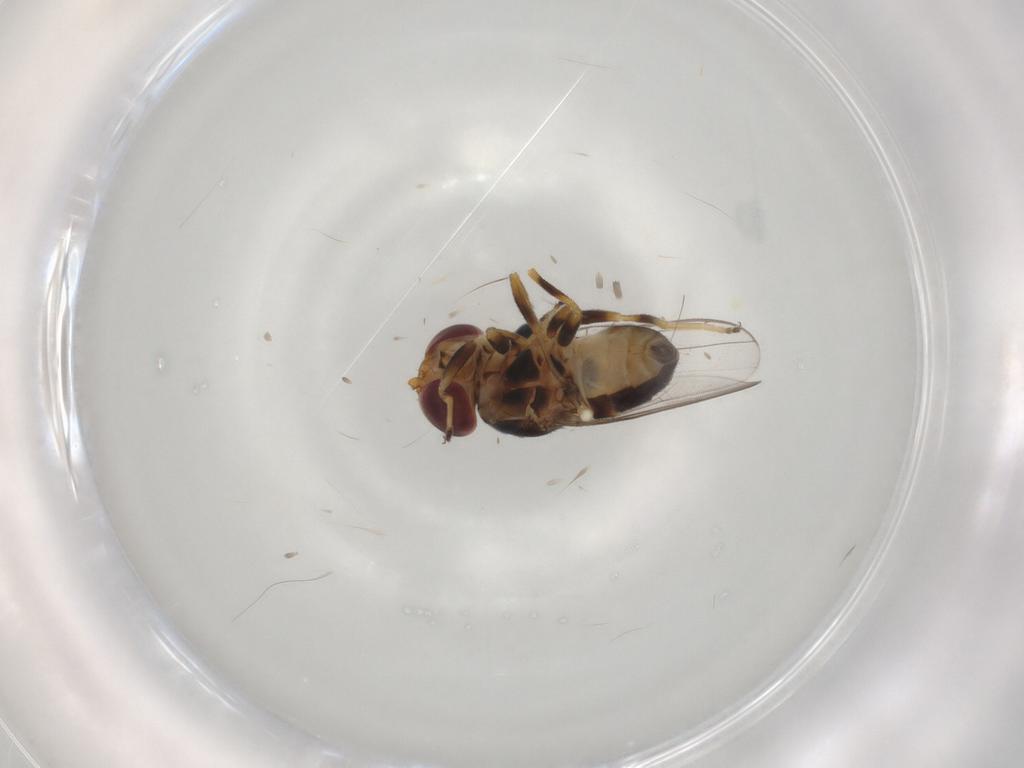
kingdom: Animalia
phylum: Arthropoda
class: Insecta
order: Diptera
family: Chloropidae
